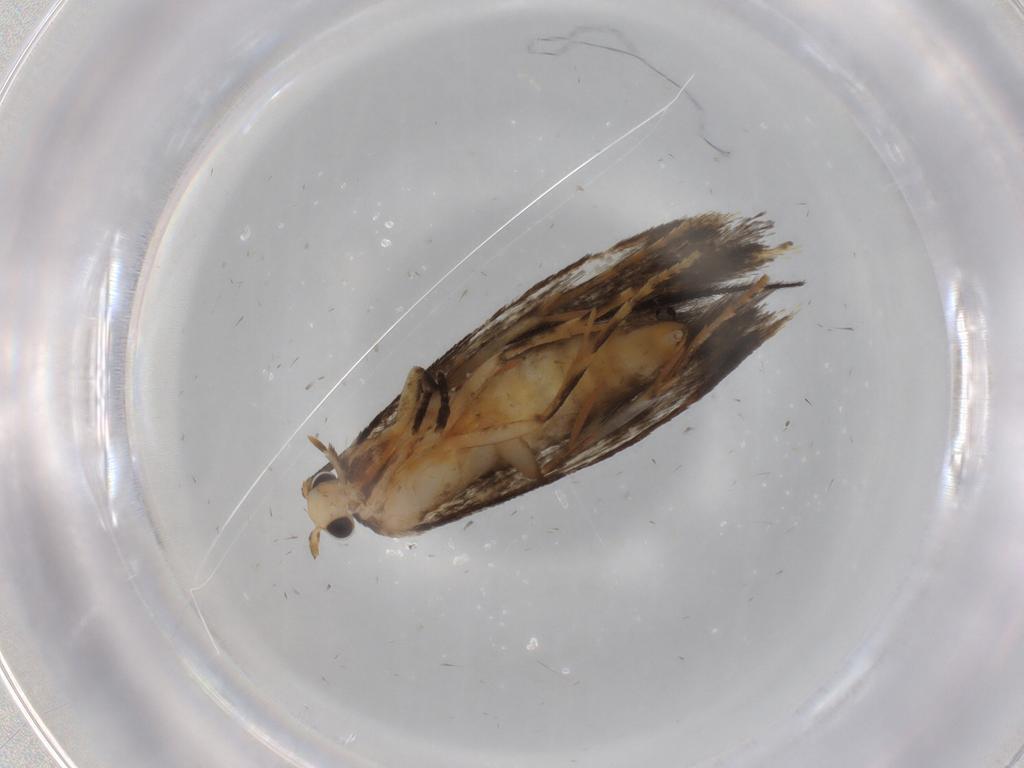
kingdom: Animalia
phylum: Arthropoda
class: Insecta
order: Lepidoptera
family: Tineidae
